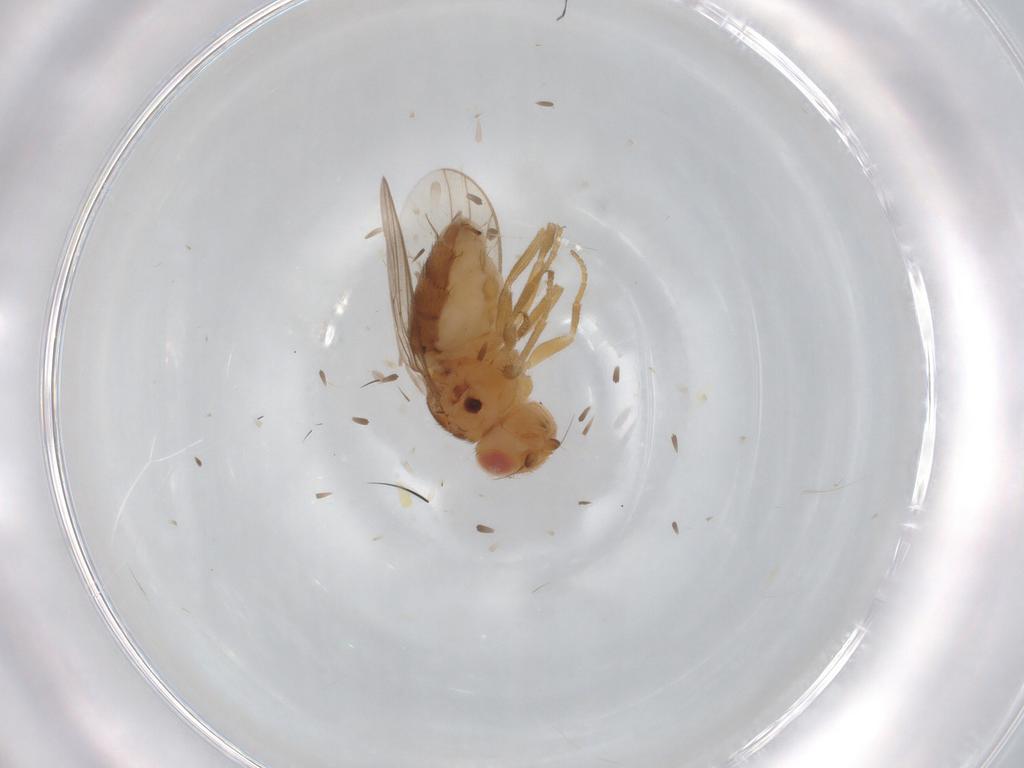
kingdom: Animalia
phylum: Arthropoda
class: Insecta
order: Diptera
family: Chloropidae
